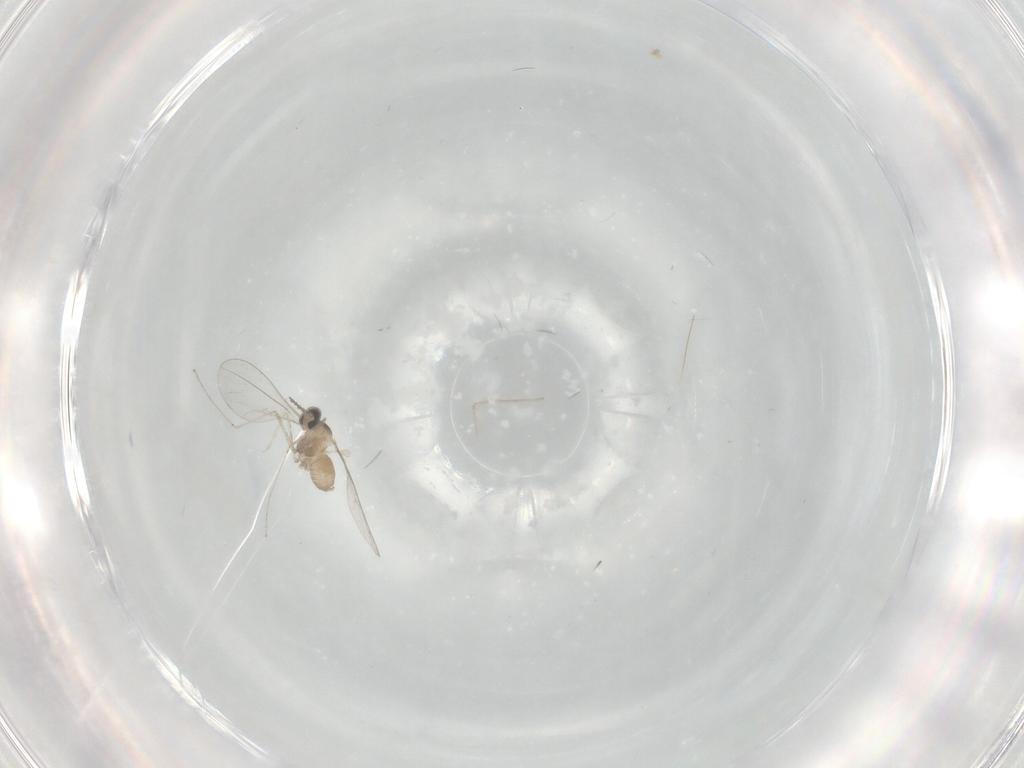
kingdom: Animalia
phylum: Arthropoda
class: Insecta
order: Diptera
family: Cecidomyiidae
